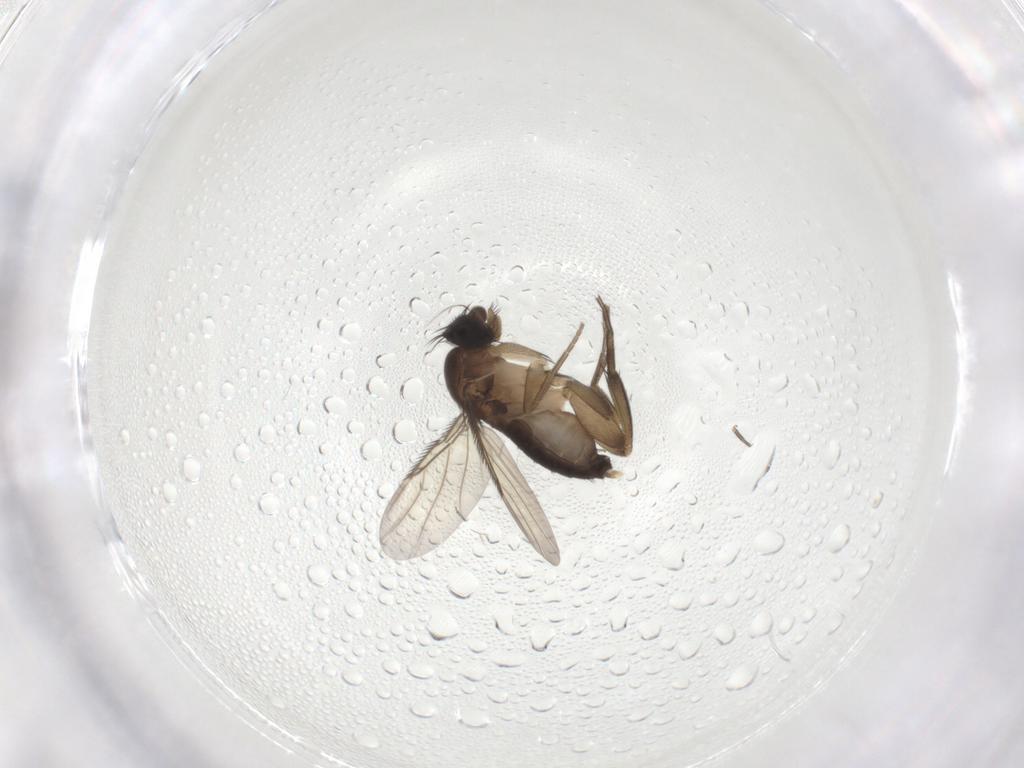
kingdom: Animalia
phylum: Arthropoda
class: Insecta
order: Diptera
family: Phoridae
